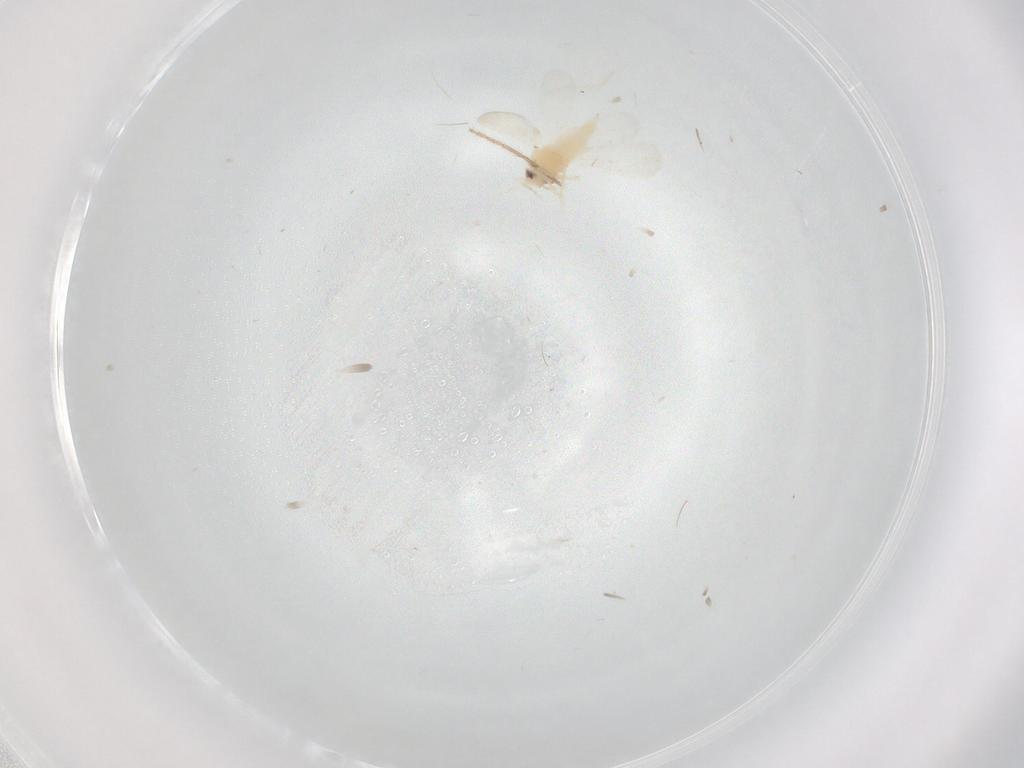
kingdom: Animalia
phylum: Arthropoda
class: Insecta
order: Hemiptera
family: Aleyrodidae
